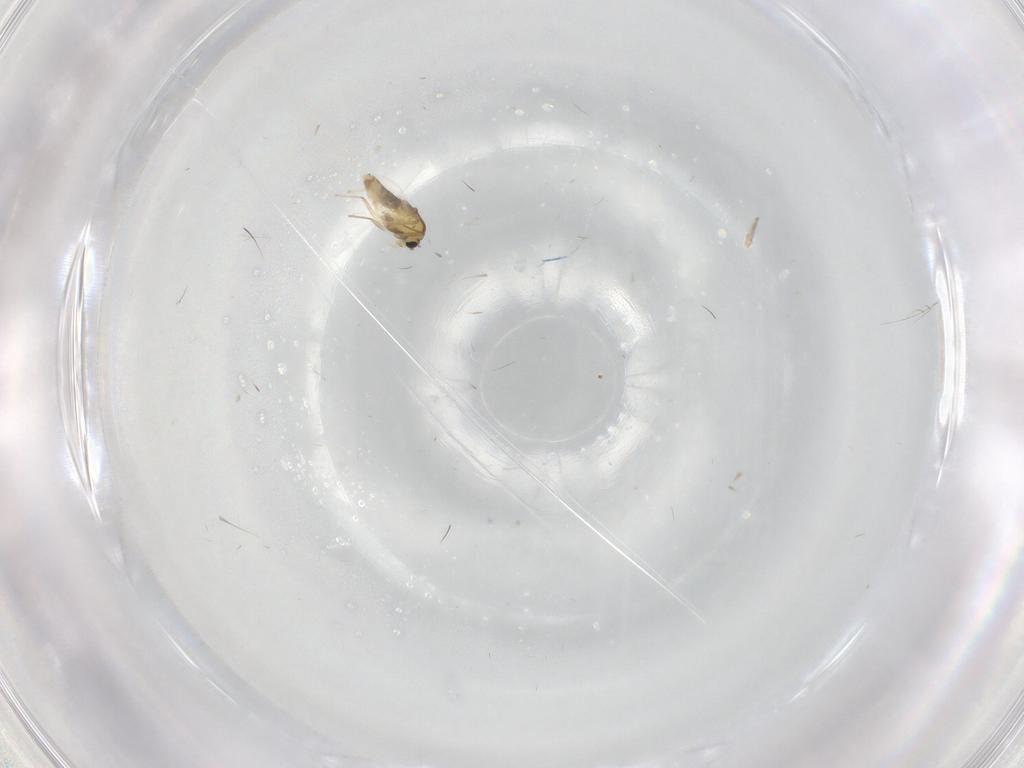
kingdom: Animalia
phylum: Arthropoda
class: Insecta
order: Diptera
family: Chironomidae
